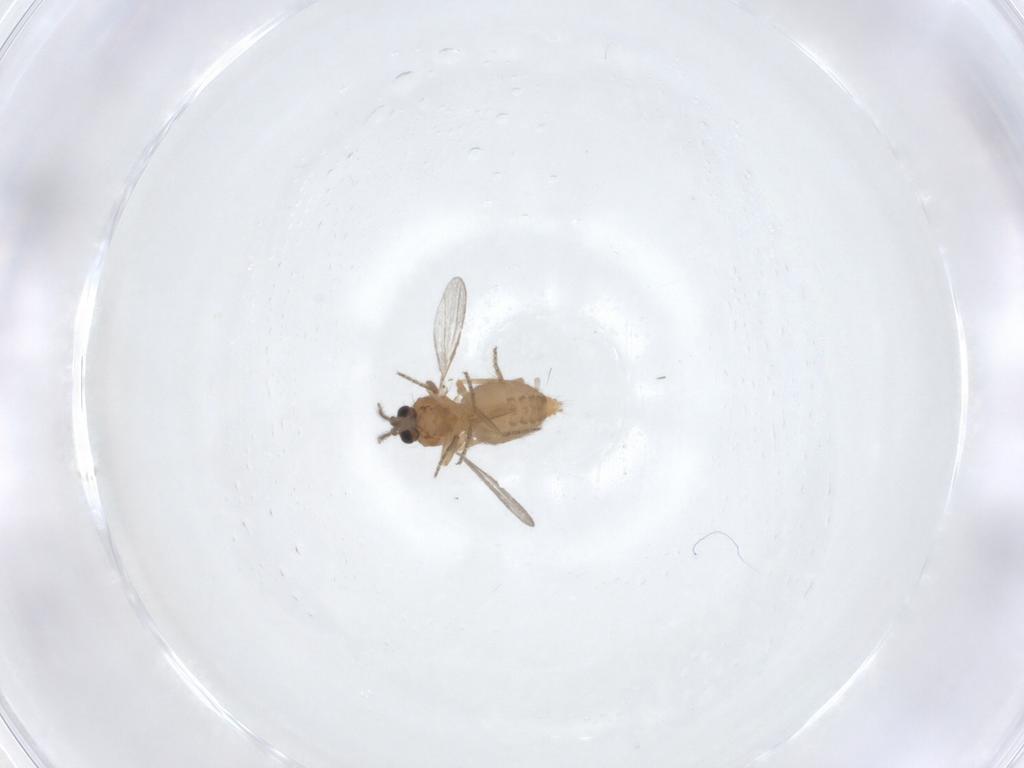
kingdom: Animalia
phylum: Arthropoda
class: Insecta
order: Diptera
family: Ceratopogonidae
